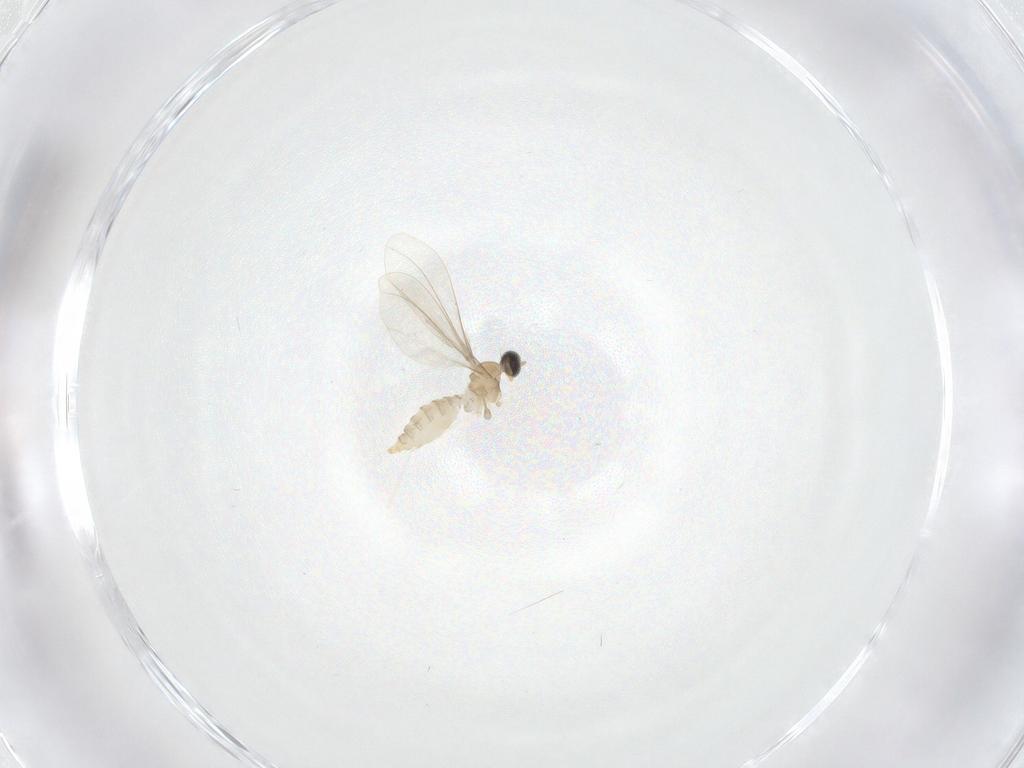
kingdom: Animalia
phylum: Arthropoda
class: Insecta
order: Diptera
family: Cecidomyiidae
